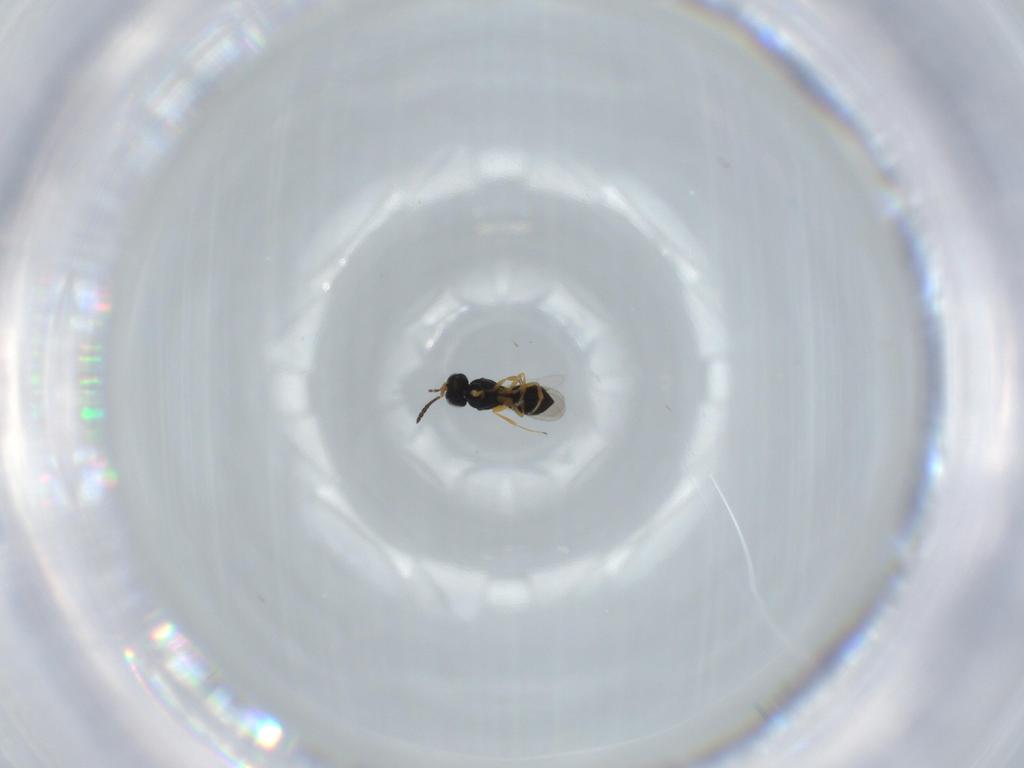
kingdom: Animalia
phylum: Arthropoda
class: Insecta
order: Hymenoptera
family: Scelionidae
